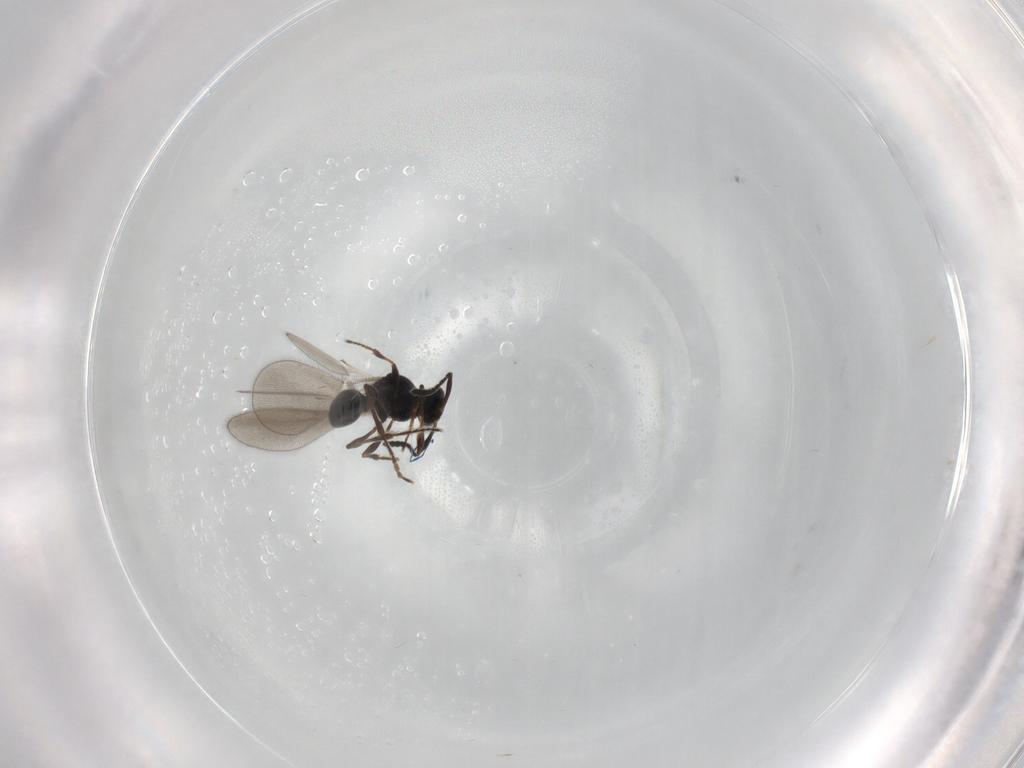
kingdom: Animalia
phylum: Arthropoda
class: Insecta
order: Hymenoptera
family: Platygastridae
